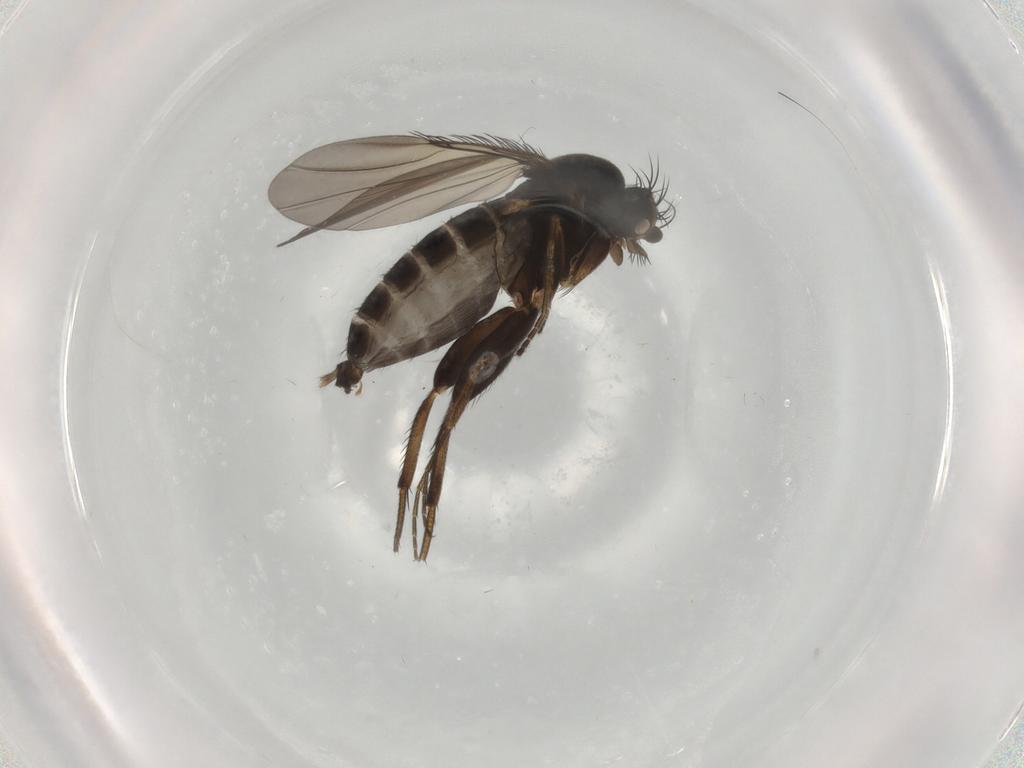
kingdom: Animalia
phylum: Arthropoda
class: Insecta
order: Diptera
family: Phoridae
